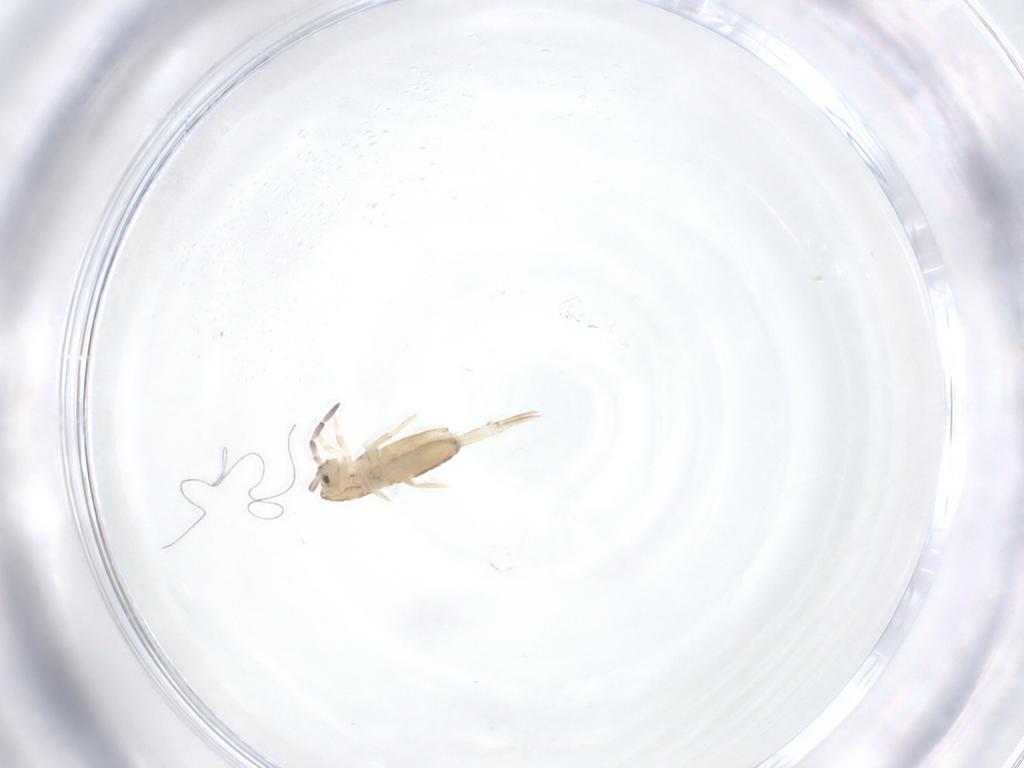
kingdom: Animalia
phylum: Arthropoda
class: Collembola
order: Entomobryomorpha
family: Entomobryidae
